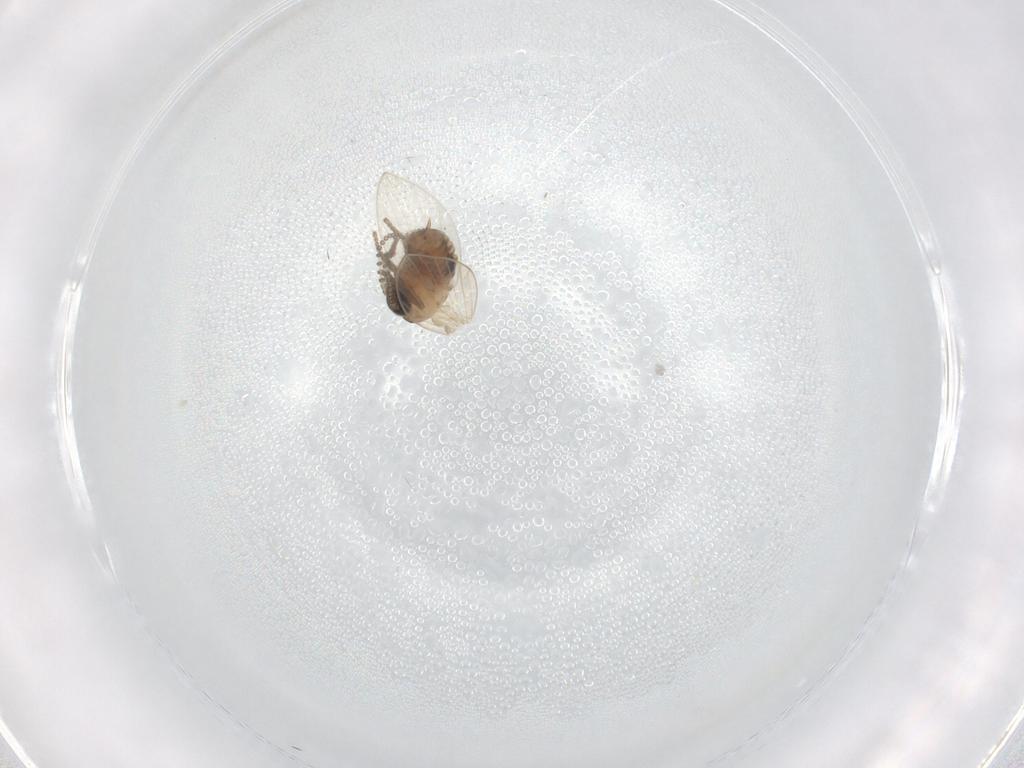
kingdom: Animalia
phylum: Arthropoda
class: Insecta
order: Diptera
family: Psychodidae
